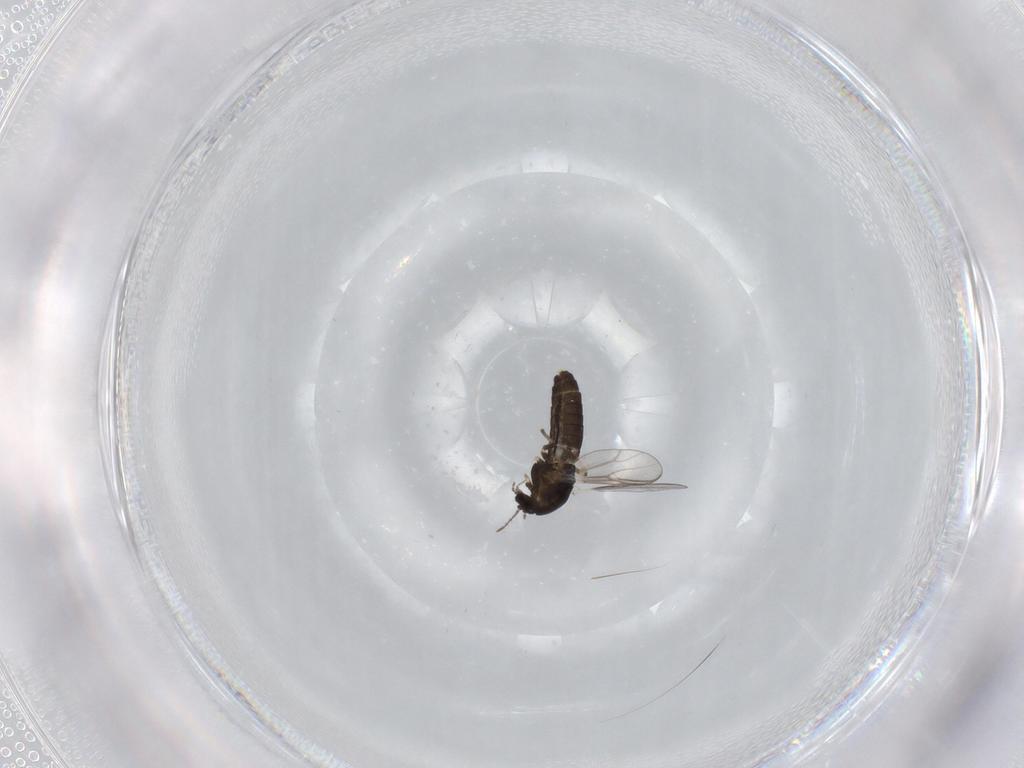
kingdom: Animalia
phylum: Arthropoda
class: Insecta
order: Diptera
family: Chironomidae
